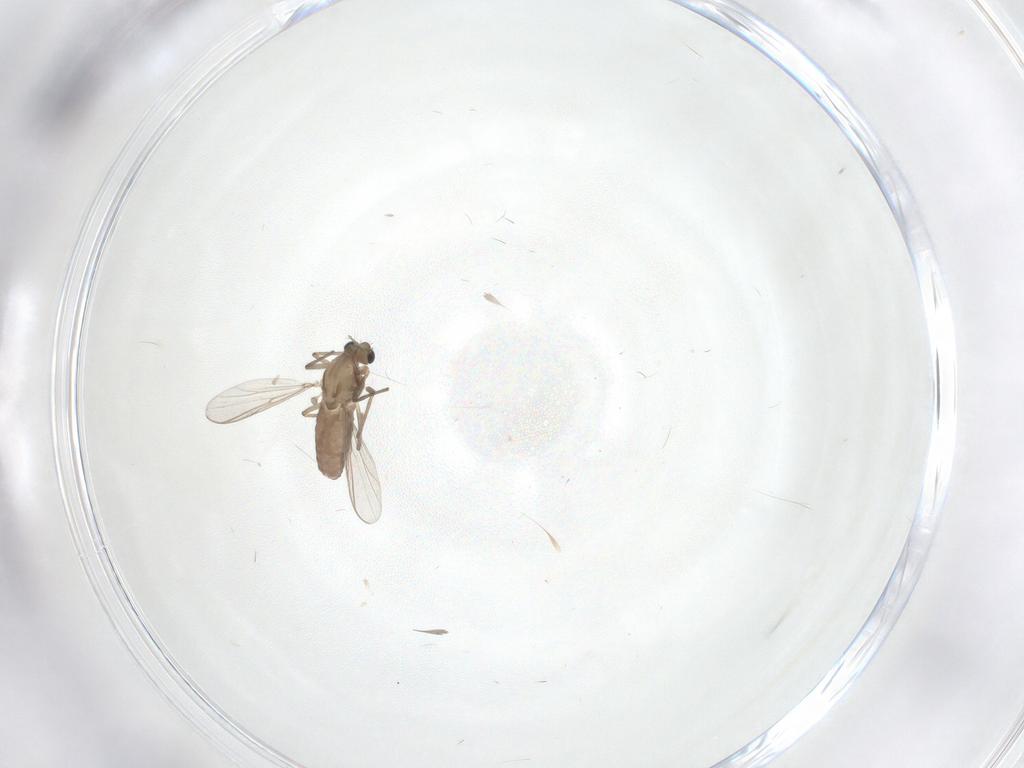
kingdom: Animalia
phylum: Arthropoda
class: Insecta
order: Diptera
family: Chironomidae
